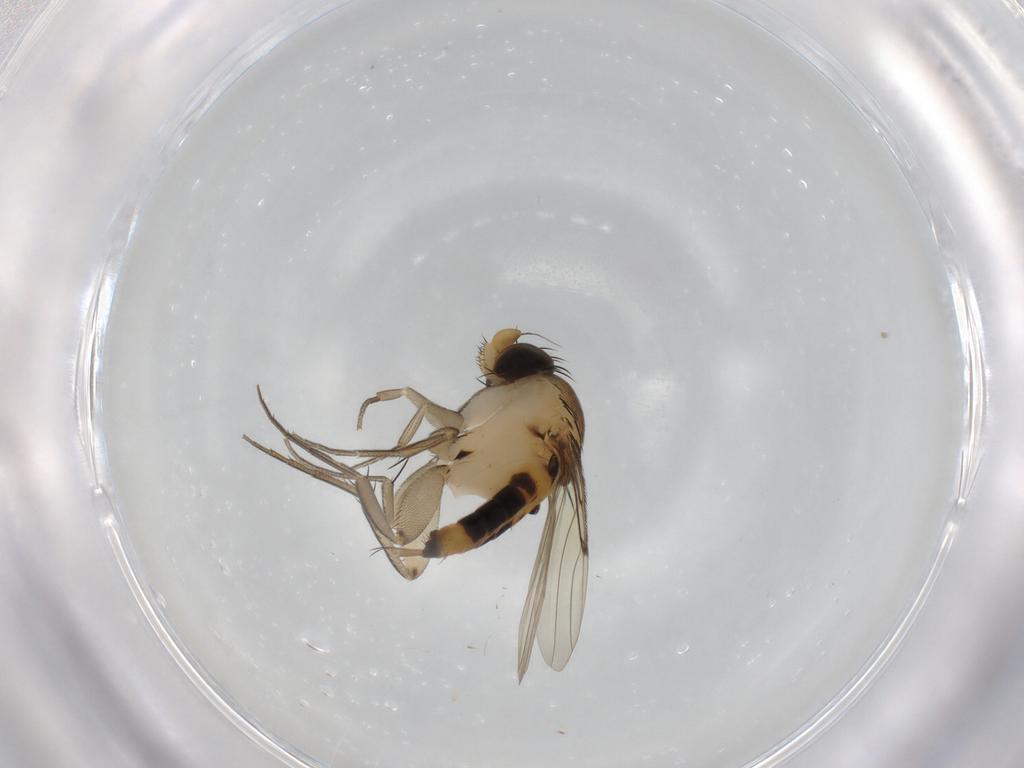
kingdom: Animalia
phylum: Arthropoda
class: Insecta
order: Diptera
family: Phoridae
